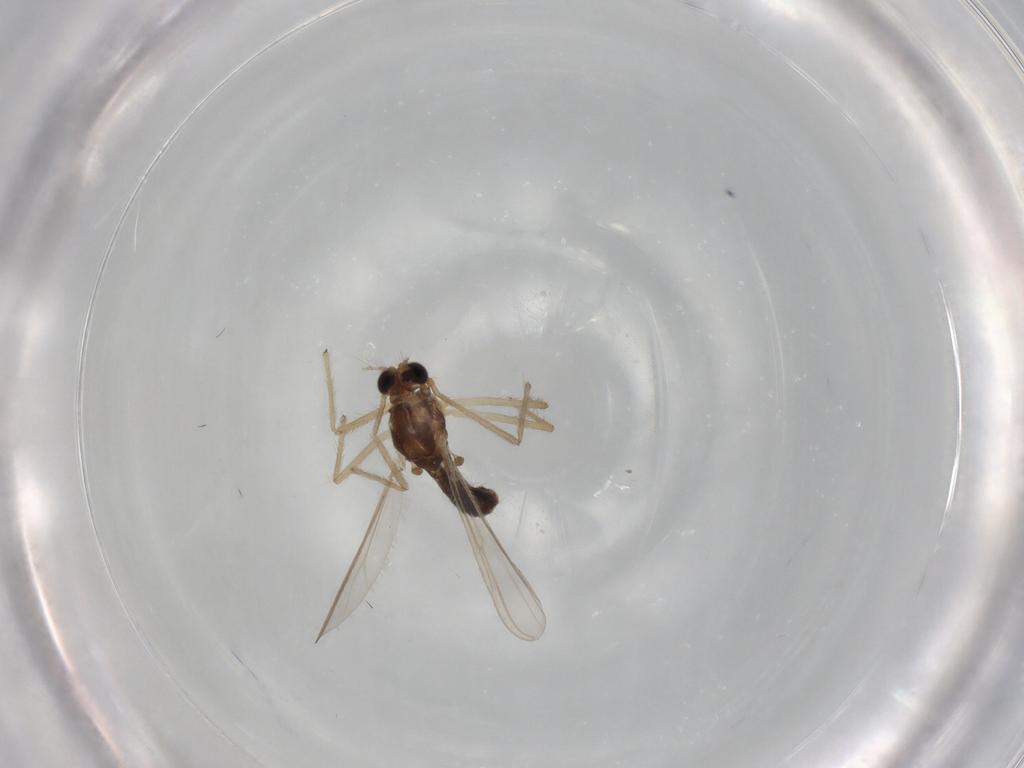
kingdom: Animalia
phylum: Arthropoda
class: Insecta
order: Diptera
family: Chironomidae
